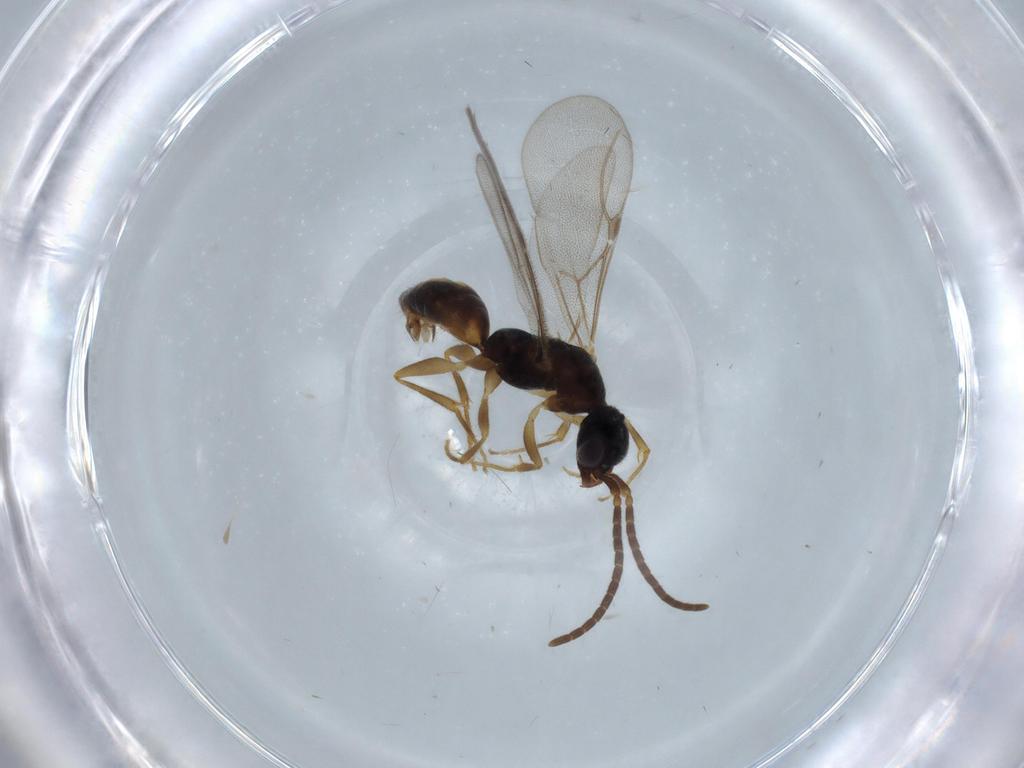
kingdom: Animalia
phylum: Arthropoda
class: Insecta
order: Hymenoptera
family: Bethylidae
